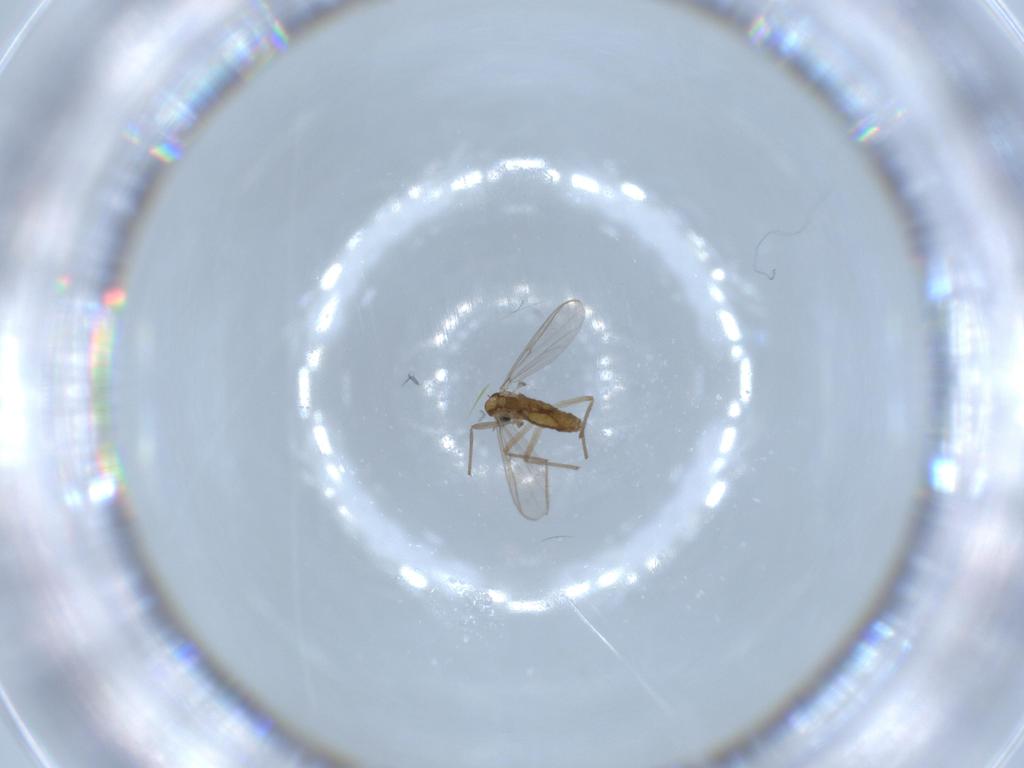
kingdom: Animalia
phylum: Arthropoda
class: Insecta
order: Diptera
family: Chironomidae
